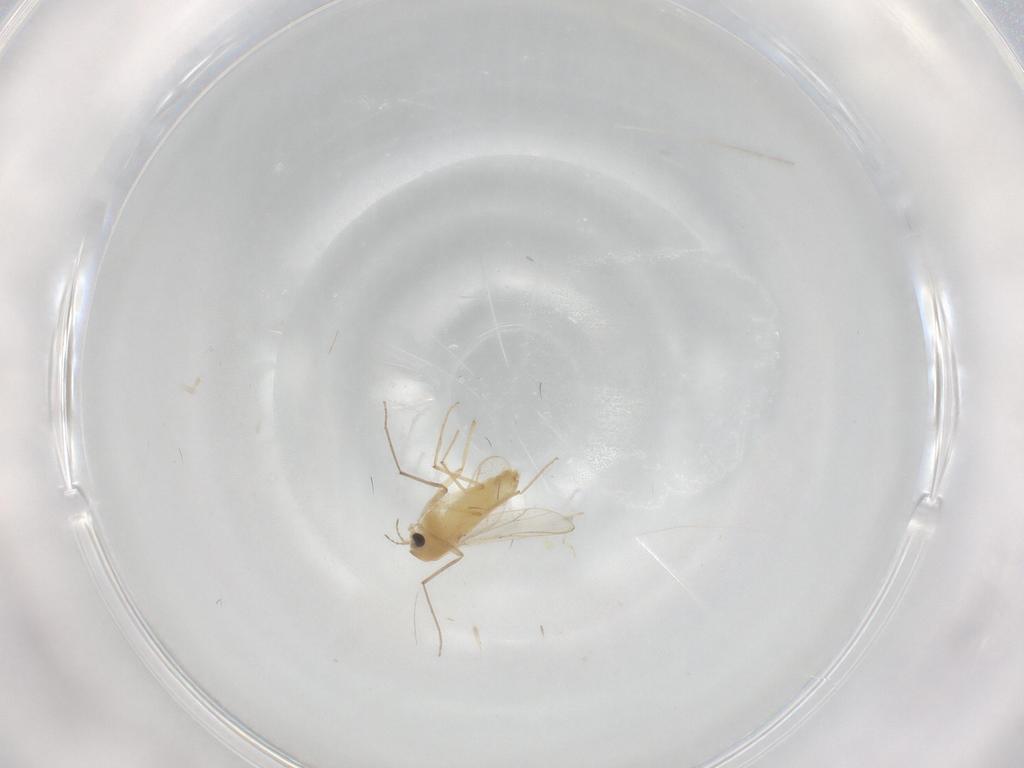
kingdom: Animalia
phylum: Arthropoda
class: Insecta
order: Diptera
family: Chironomidae
